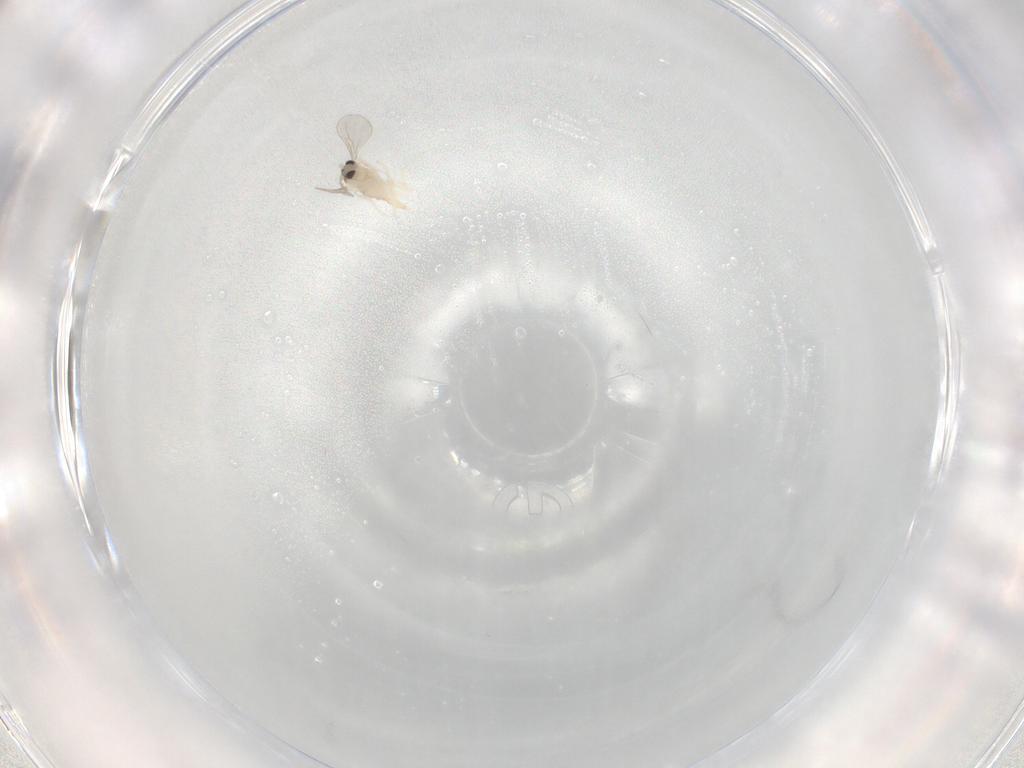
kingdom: Animalia
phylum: Arthropoda
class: Insecta
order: Diptera
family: Cecidomyiidae
